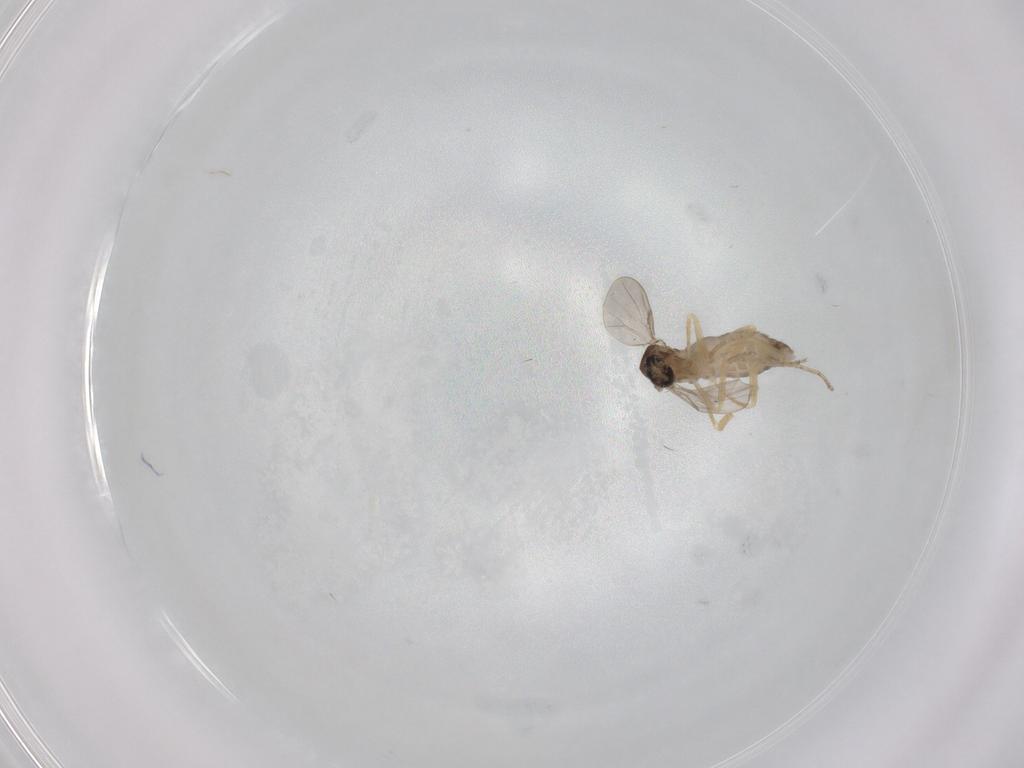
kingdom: Animalia
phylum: Arthropoda
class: Insecta
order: Diptera
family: Ceratopogonidae
